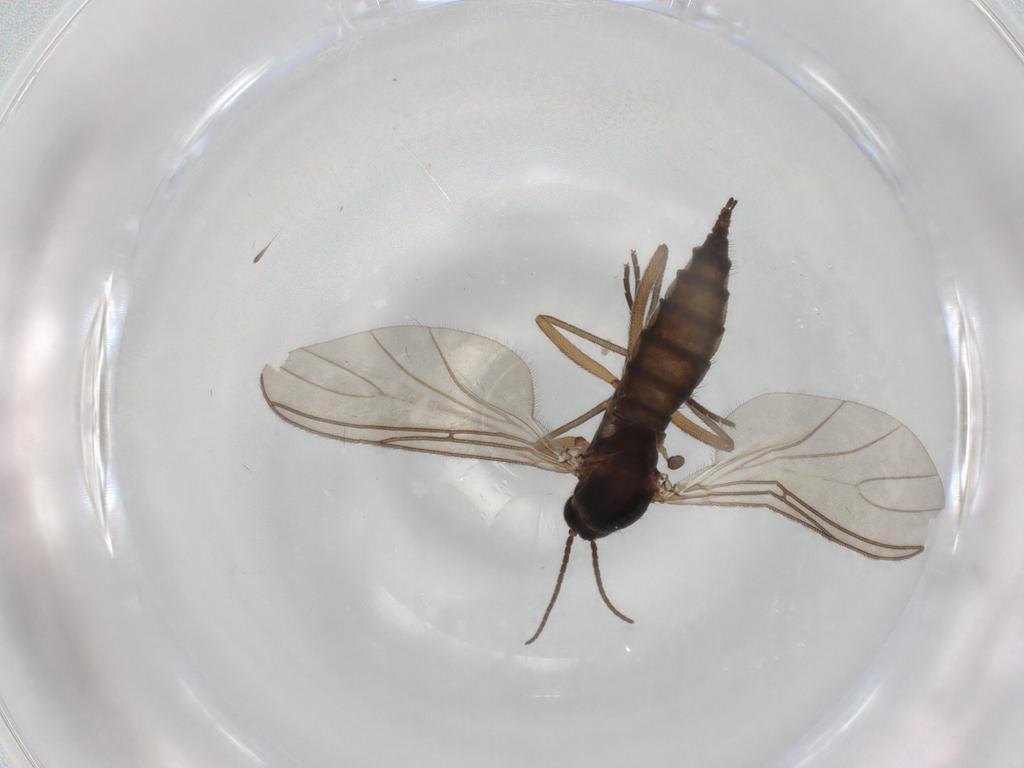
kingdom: Animalia
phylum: Arthropoda
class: Insecta
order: Diptera
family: Sciaridae
